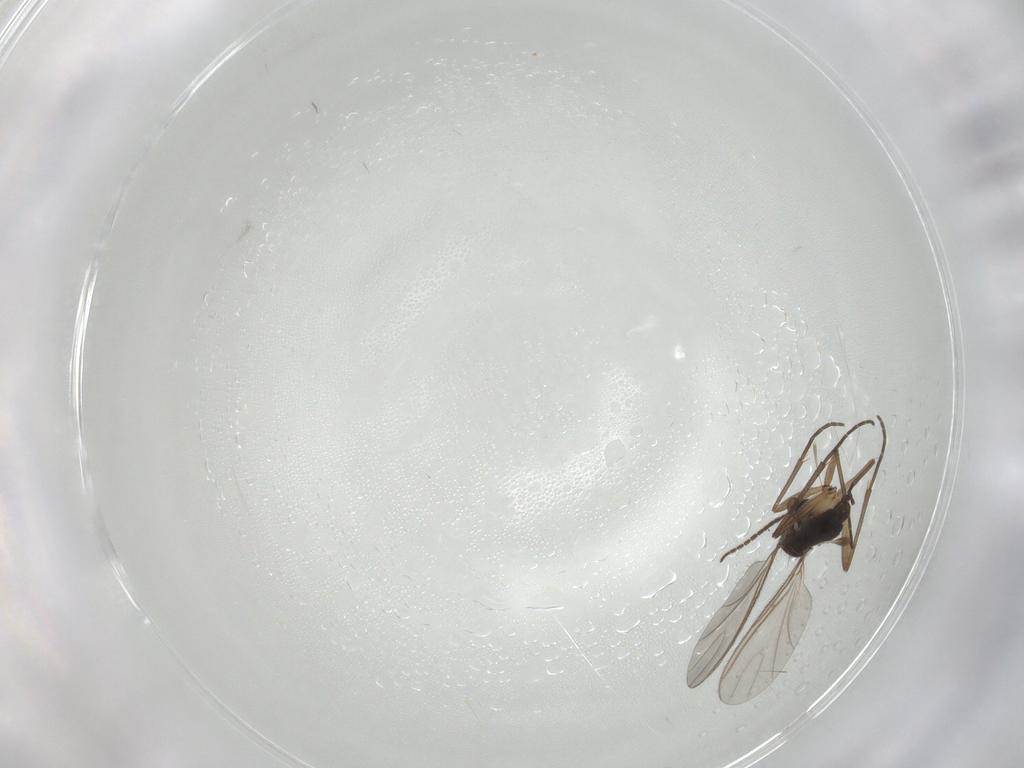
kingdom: Animalia
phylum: Arthropoda
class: Insecta
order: Diptera
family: Sciaridae
